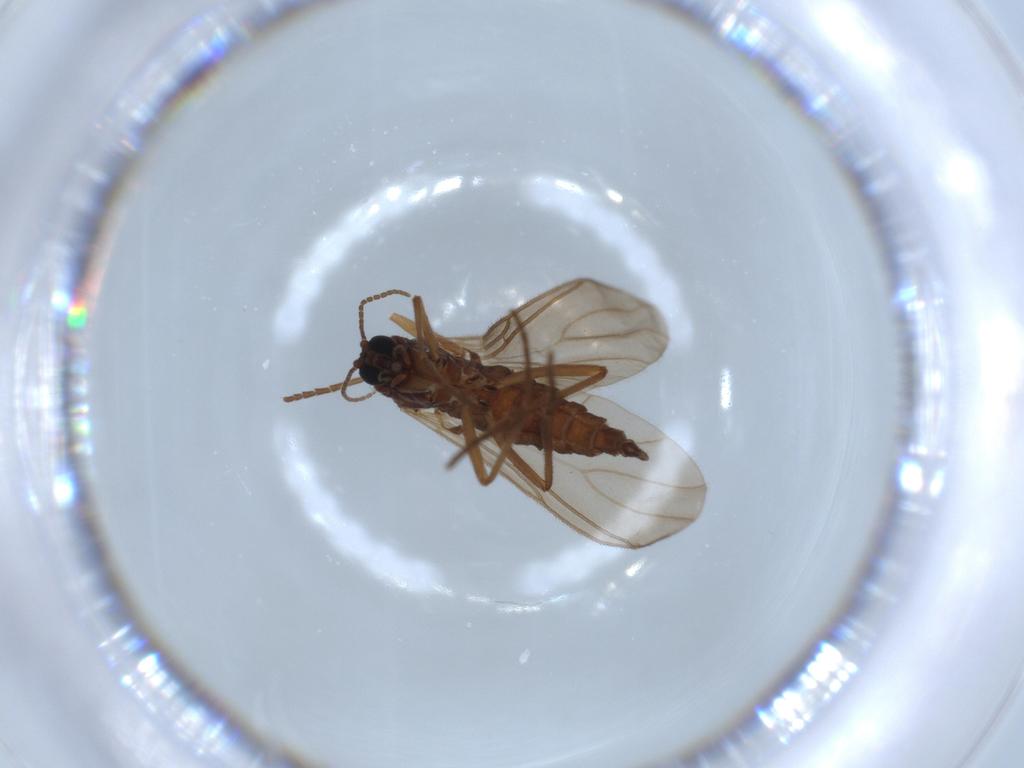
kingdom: Animalia
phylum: Arthropoda
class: Insecta
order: Diptera
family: Sciaridae
